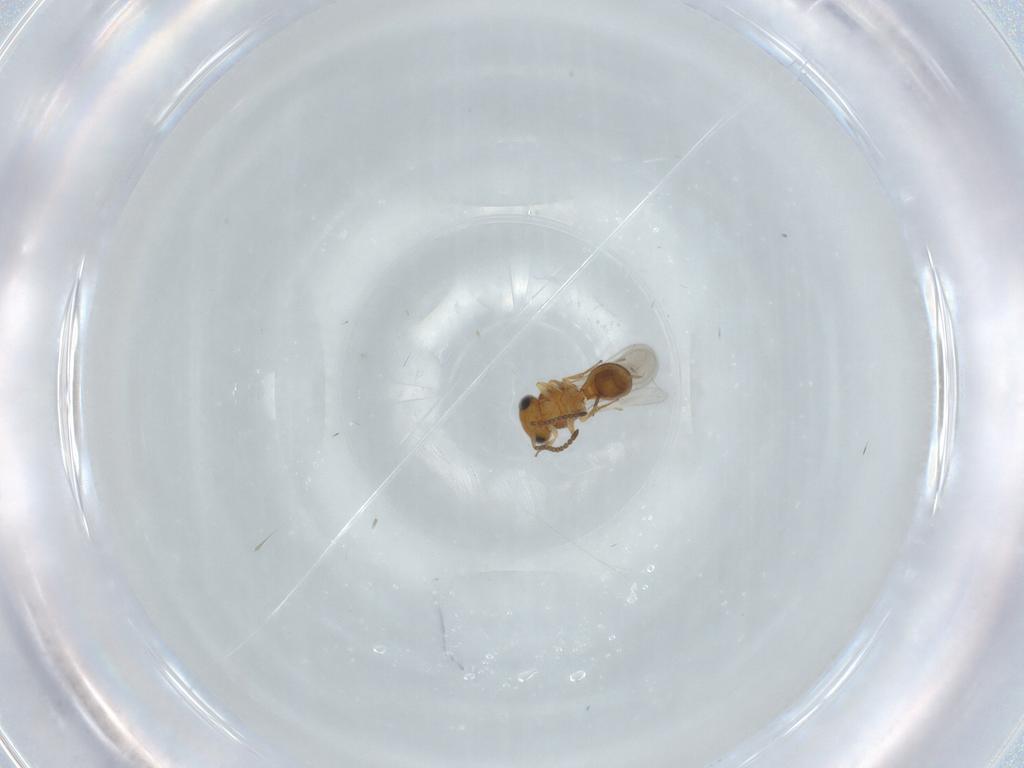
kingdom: Animalia
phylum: Arthropoda
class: Insecta
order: Hymenoptera
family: Scelionidae
